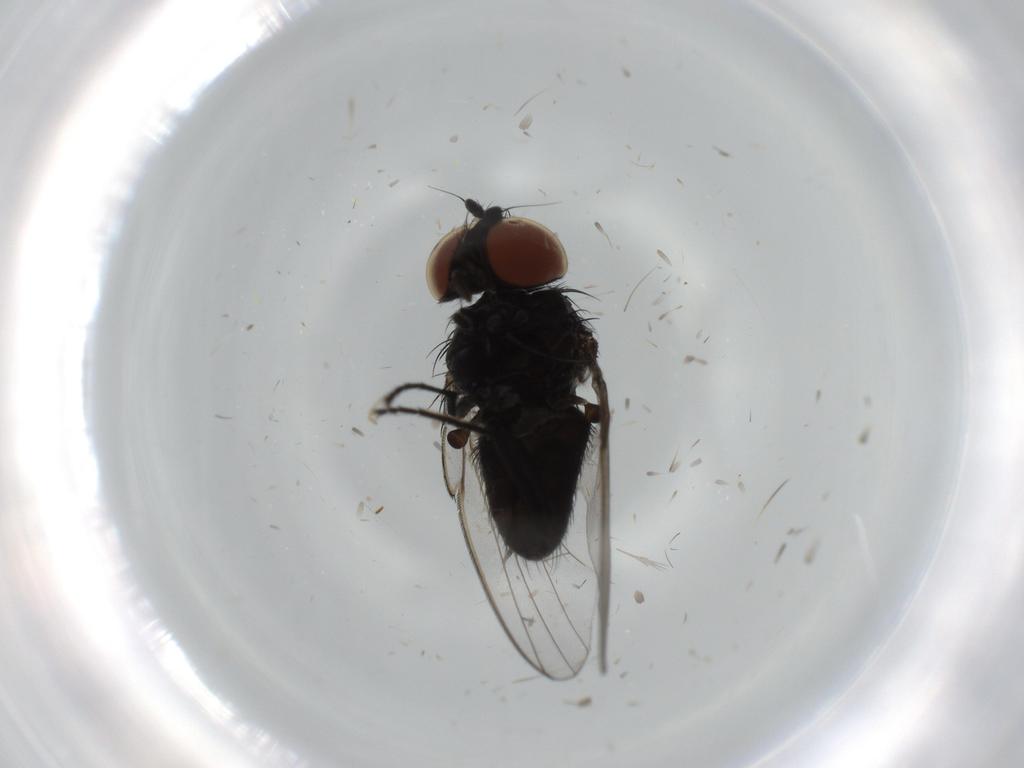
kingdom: Animalia
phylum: Arthropoda
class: Insecta
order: Diptera
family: Milichiidae
